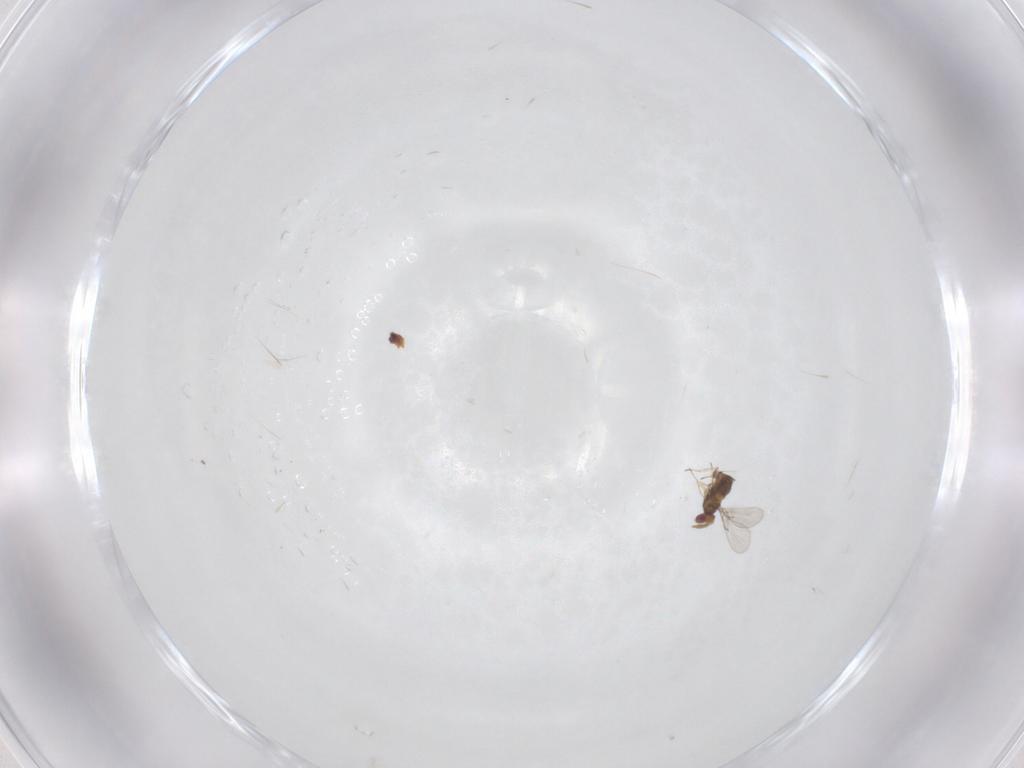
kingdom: Animalia
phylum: Arthropoda
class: Insecta
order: Hymenoptera
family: Trichogrammatidae
